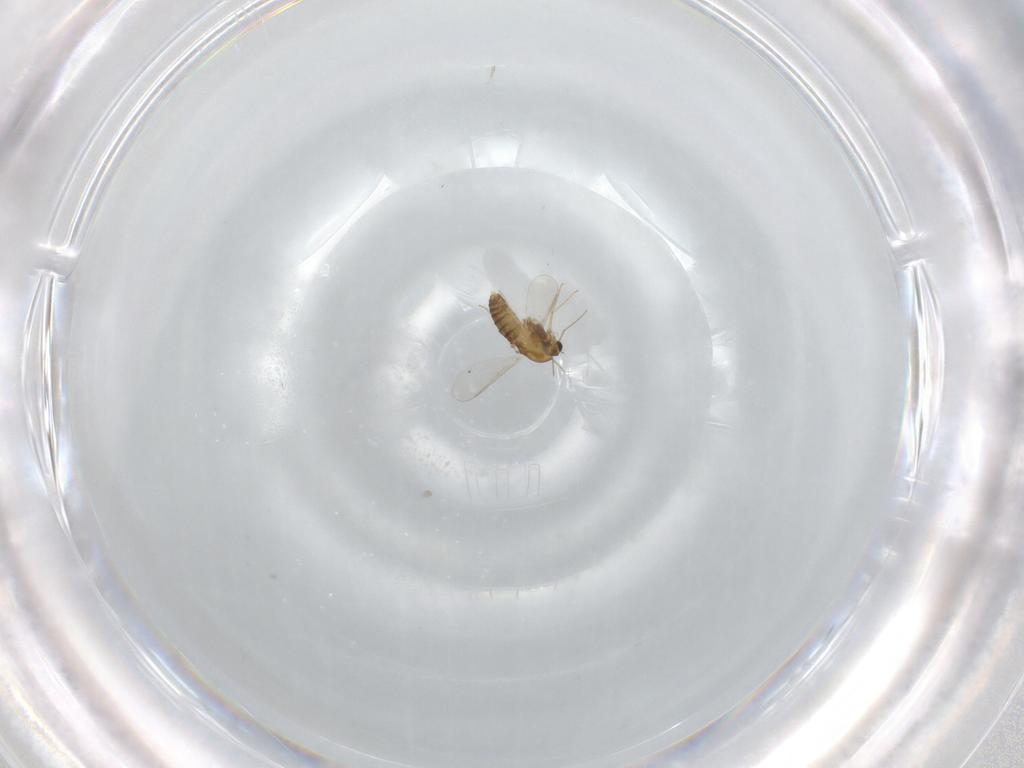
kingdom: Animalia
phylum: Arthropoda
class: Insecta
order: Diptera
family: Chironomidae
